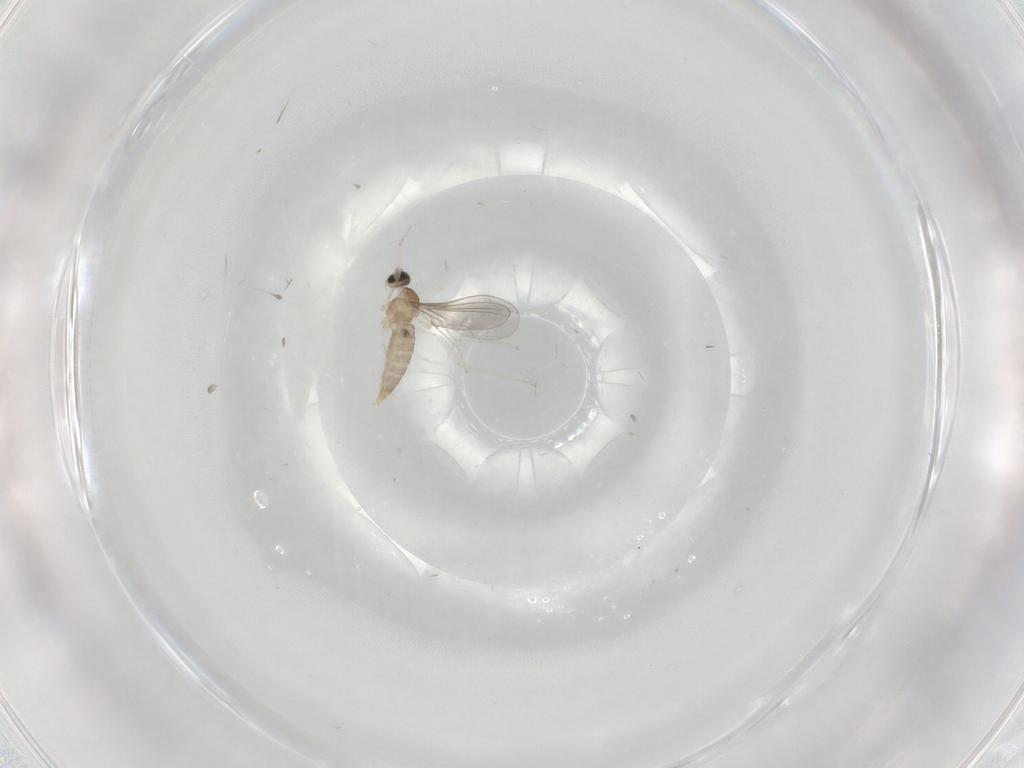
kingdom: Animalia
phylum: Arthropoda
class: Insecta
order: Diptera
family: Cecidomyiidae
